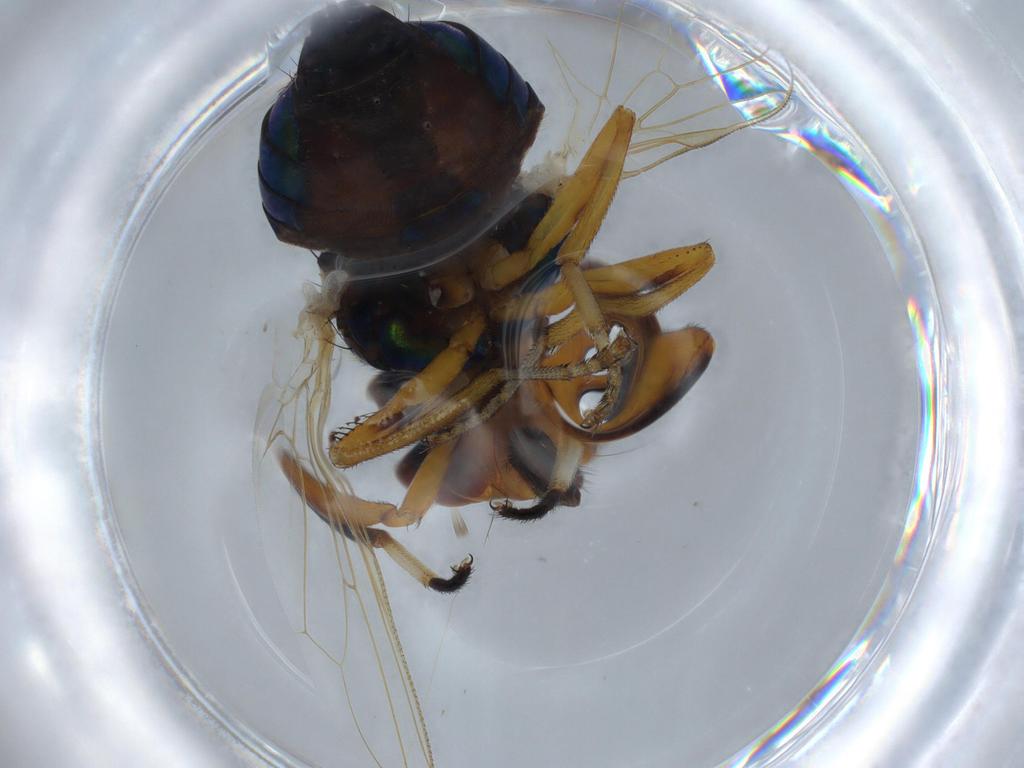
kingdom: Animalia
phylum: Arthropoda
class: Insecta
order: Diptera
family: Ulidiidae
